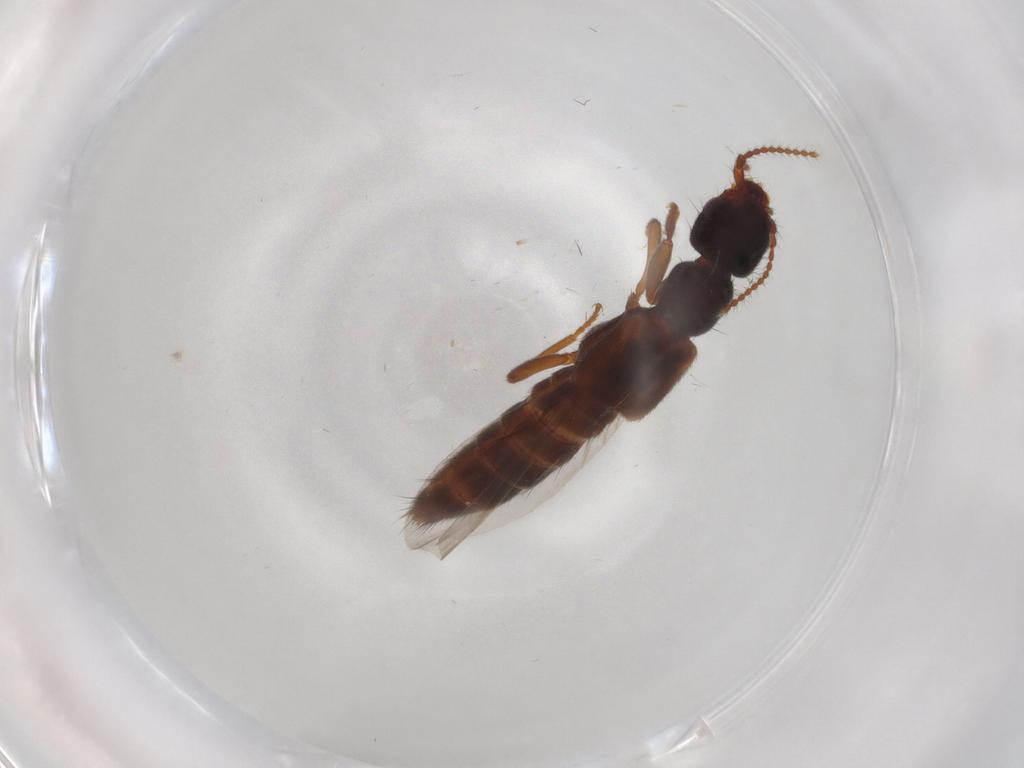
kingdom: Animalia
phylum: Arthropoda
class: Insecta
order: Coleoptera
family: Staphylinidae
